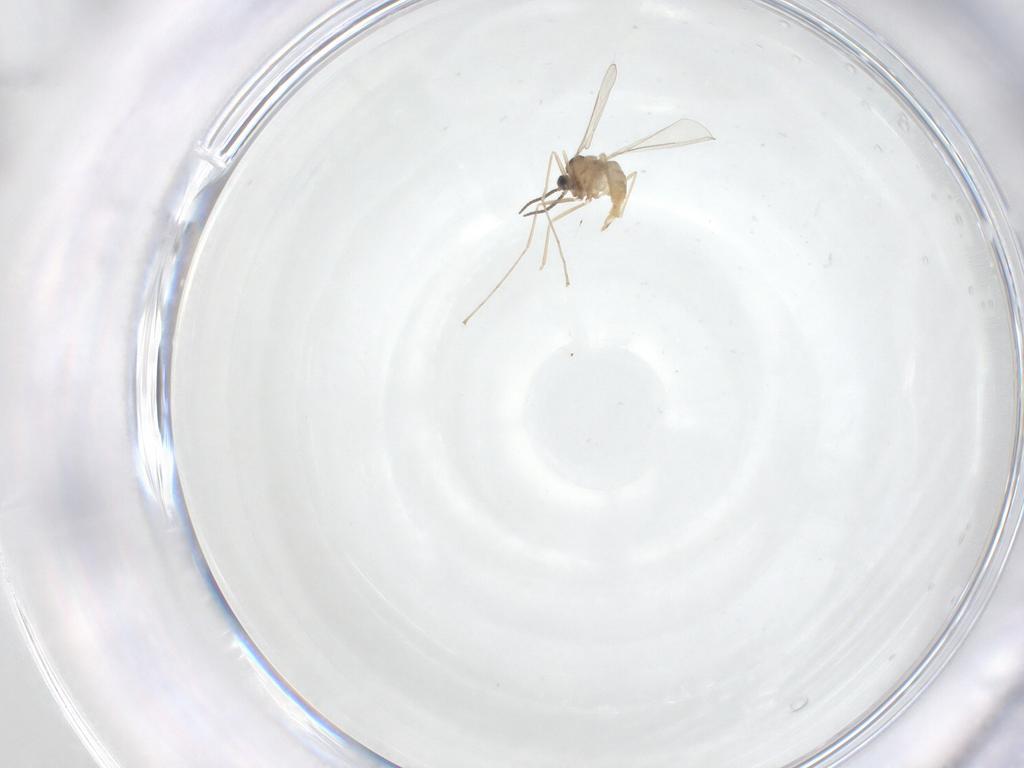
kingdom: Animalia
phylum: Arthropoda
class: Insecta
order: Diptera
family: Cecidomyiidae
